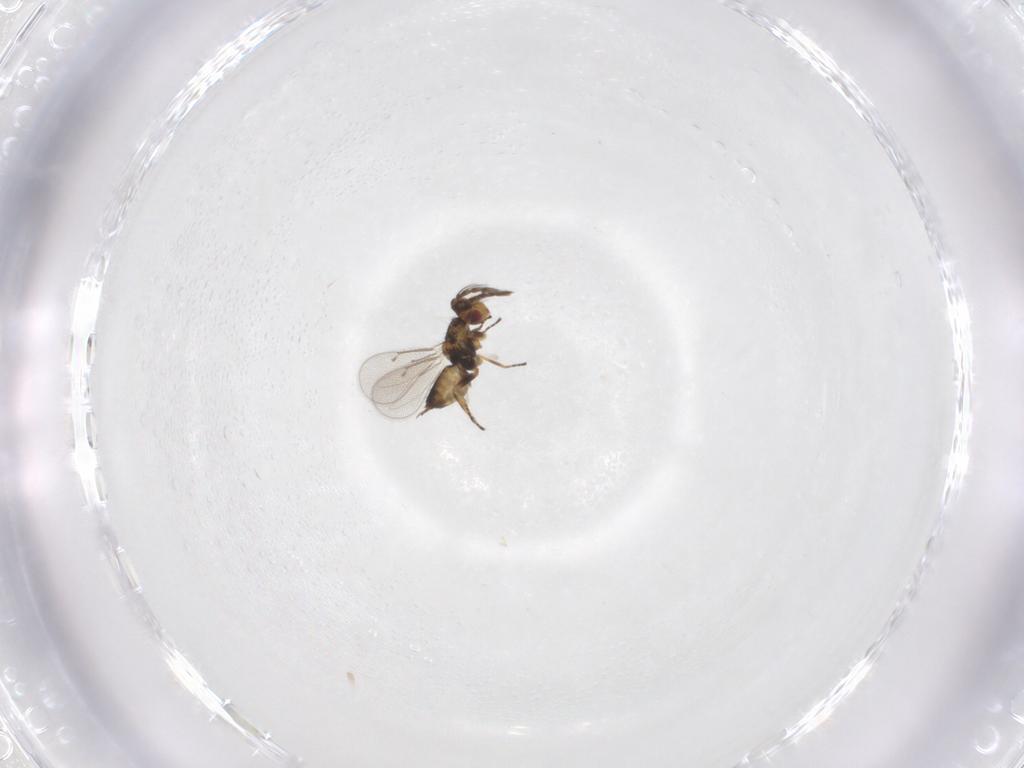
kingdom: Animalia
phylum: Arthropoda
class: Insecta
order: Hymenoptera
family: Eulophidae
